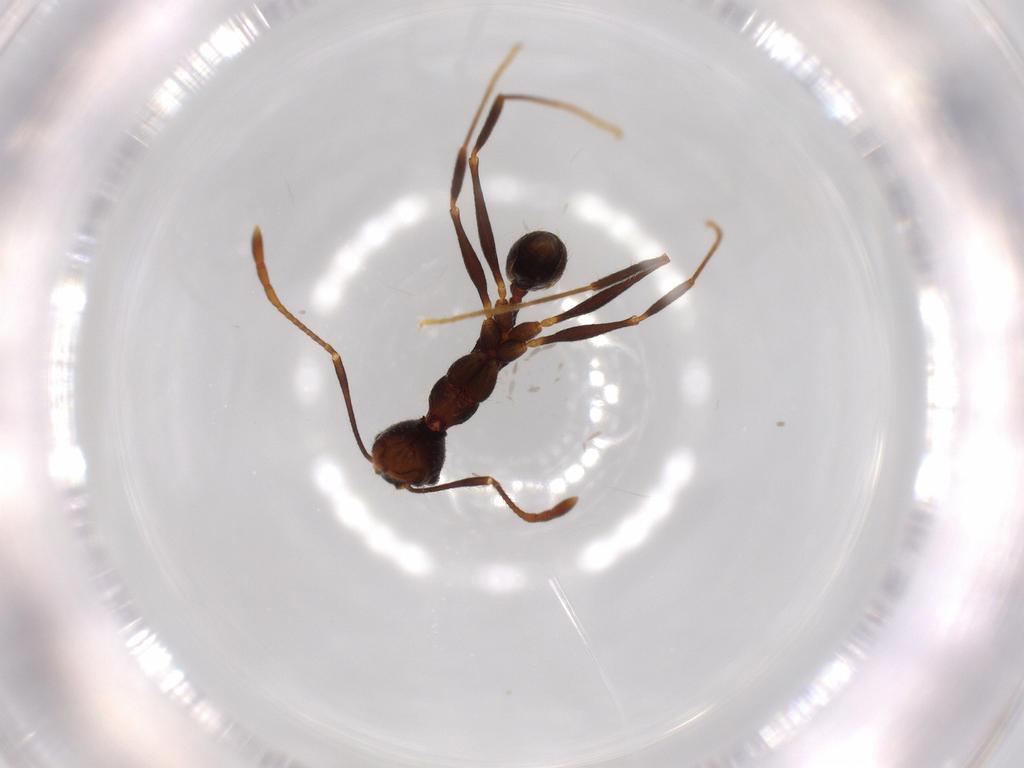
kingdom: Animalia
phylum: Arthropoda
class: Insecta
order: Hymenoptera
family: Formicidae
